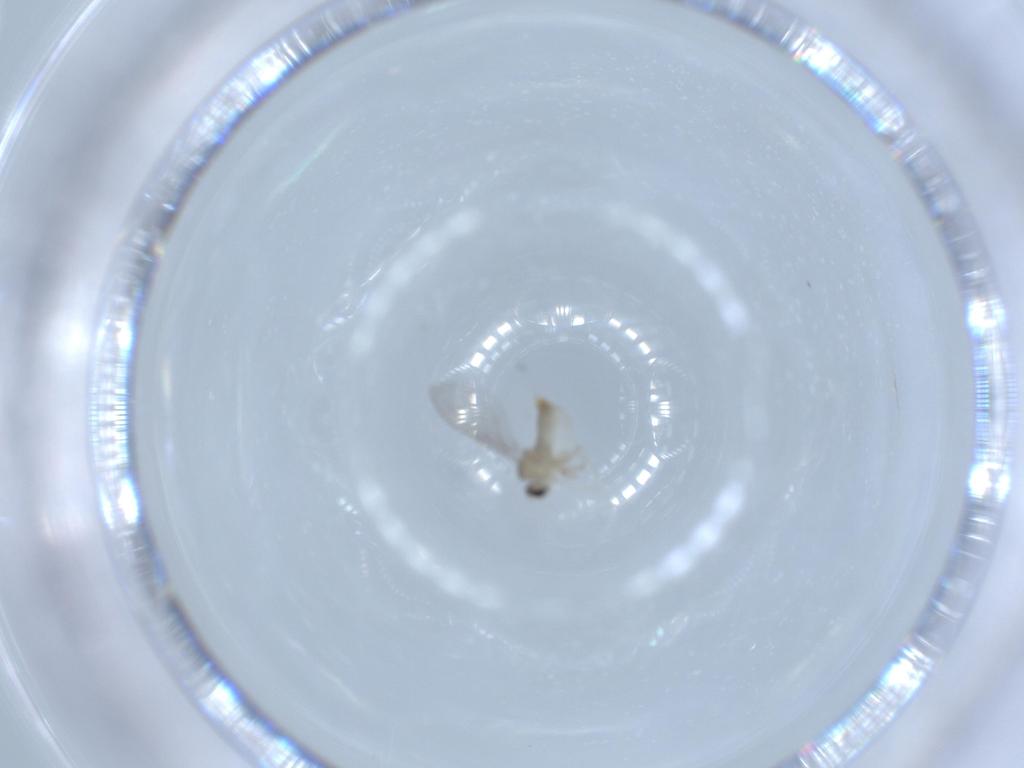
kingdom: Animalia
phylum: Arthropoda
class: Insecta
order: Diptera
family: Cecidomyiidae
